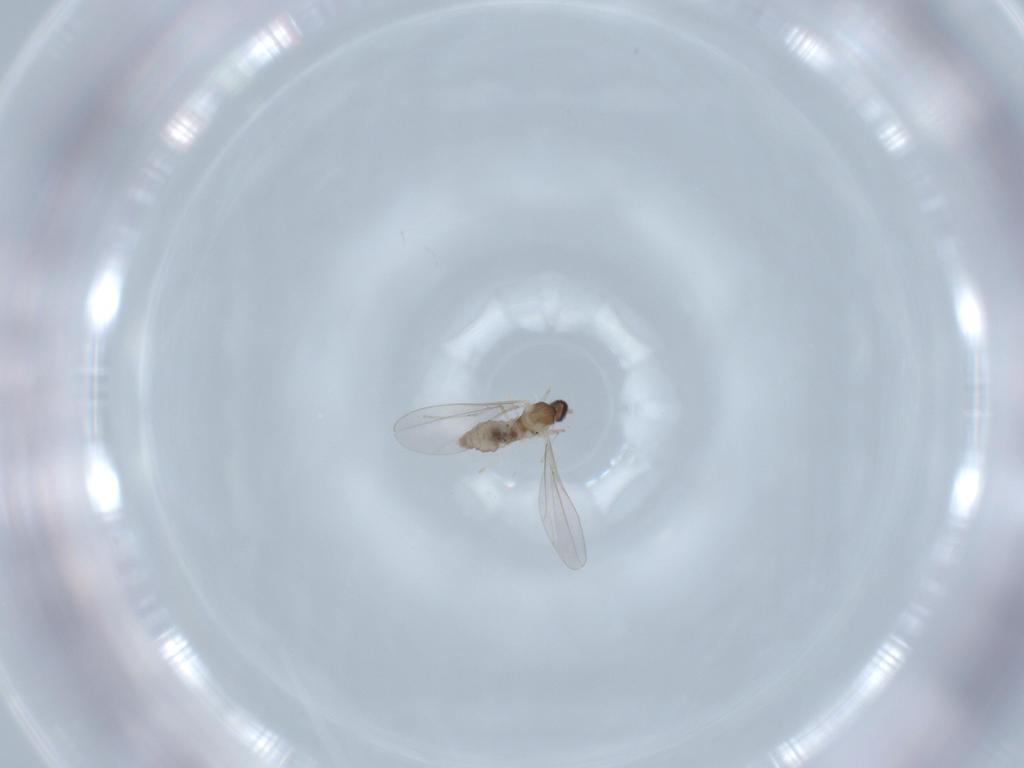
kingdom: Animalia
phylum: Arthropoda
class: Insecta
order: Diptera
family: Cecidomyiidae
